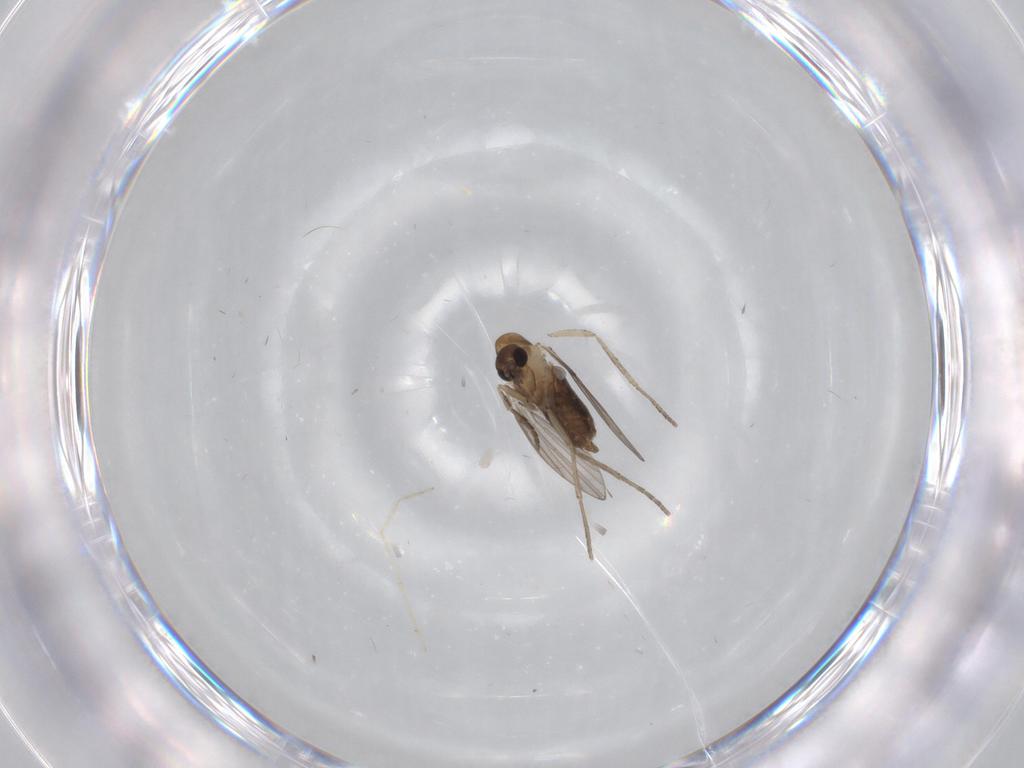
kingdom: Animalia
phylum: Arthropoda
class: Insecta
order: Diptera
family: Psychodidae
